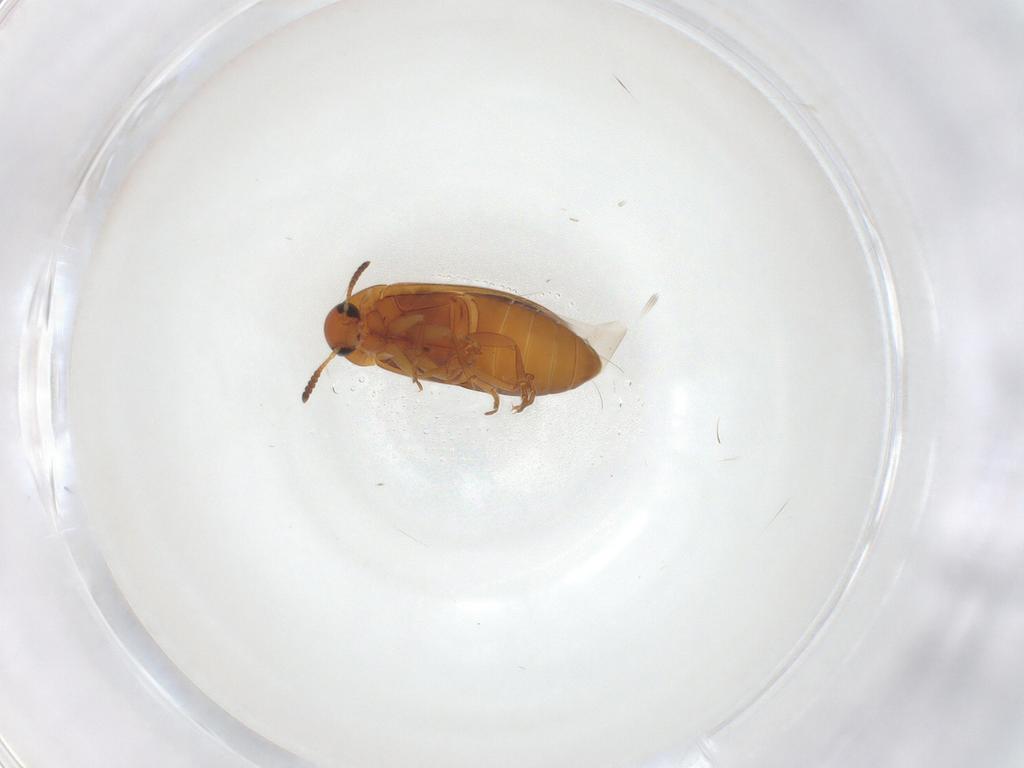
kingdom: Animalia
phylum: Arthropoda
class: Insecta
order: Coleoptera
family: Scraptiidae
